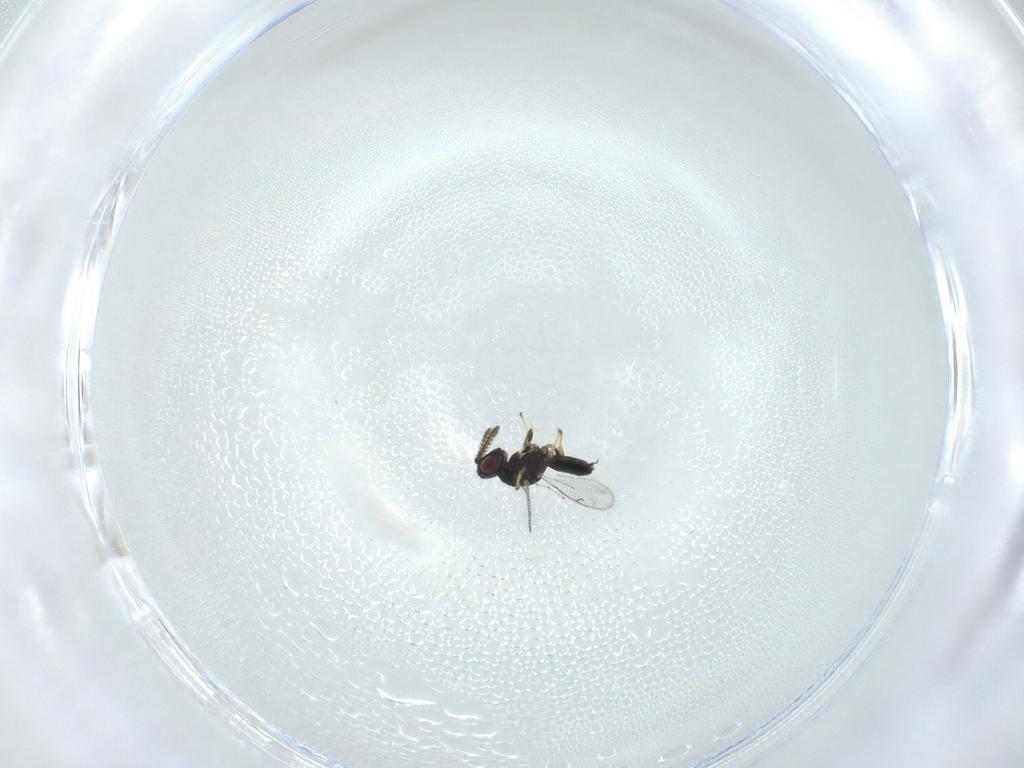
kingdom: Animalia
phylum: Arthropoda
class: Insecta
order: Hymenoptera
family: Pteromalidae
